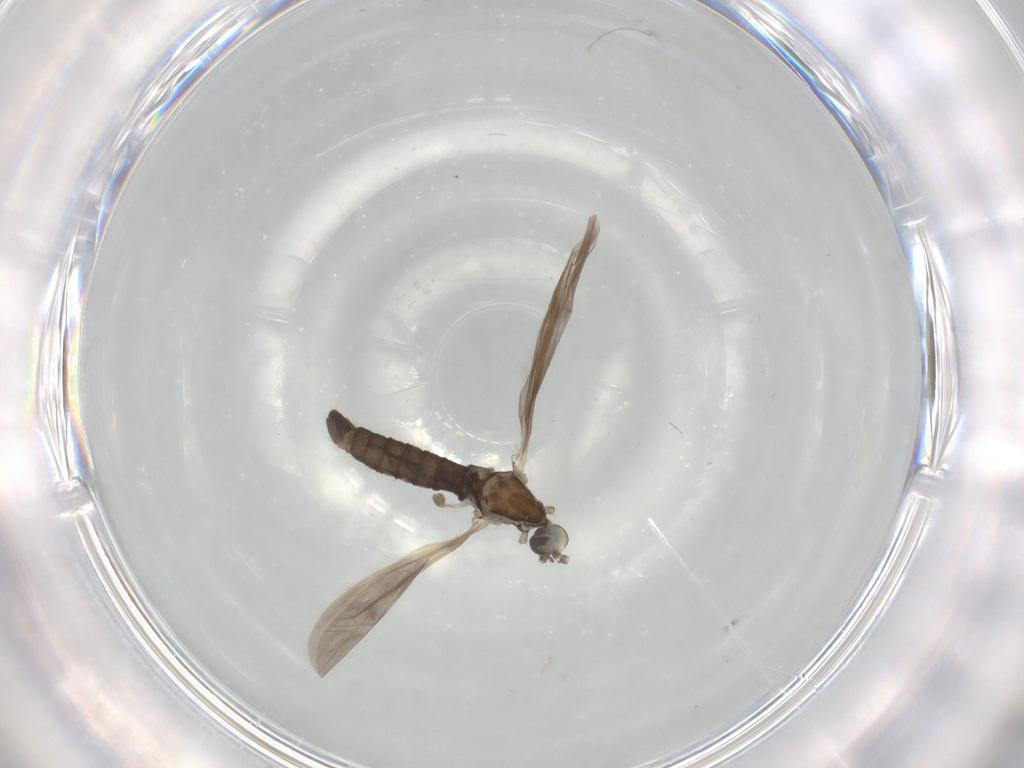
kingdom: Animalia
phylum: Arthropoda
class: Insecta
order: Diptera
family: Limoniidae
